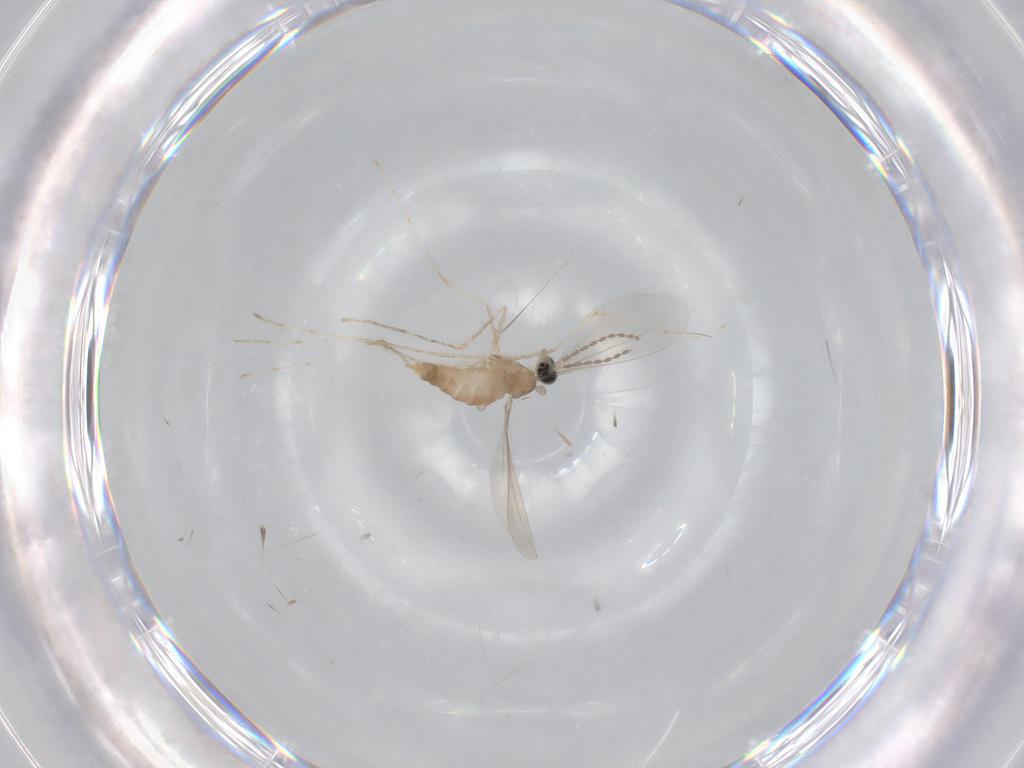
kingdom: Animalia
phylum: Arthropoda
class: Insecta
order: Diptera
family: Cecidomyiidae
